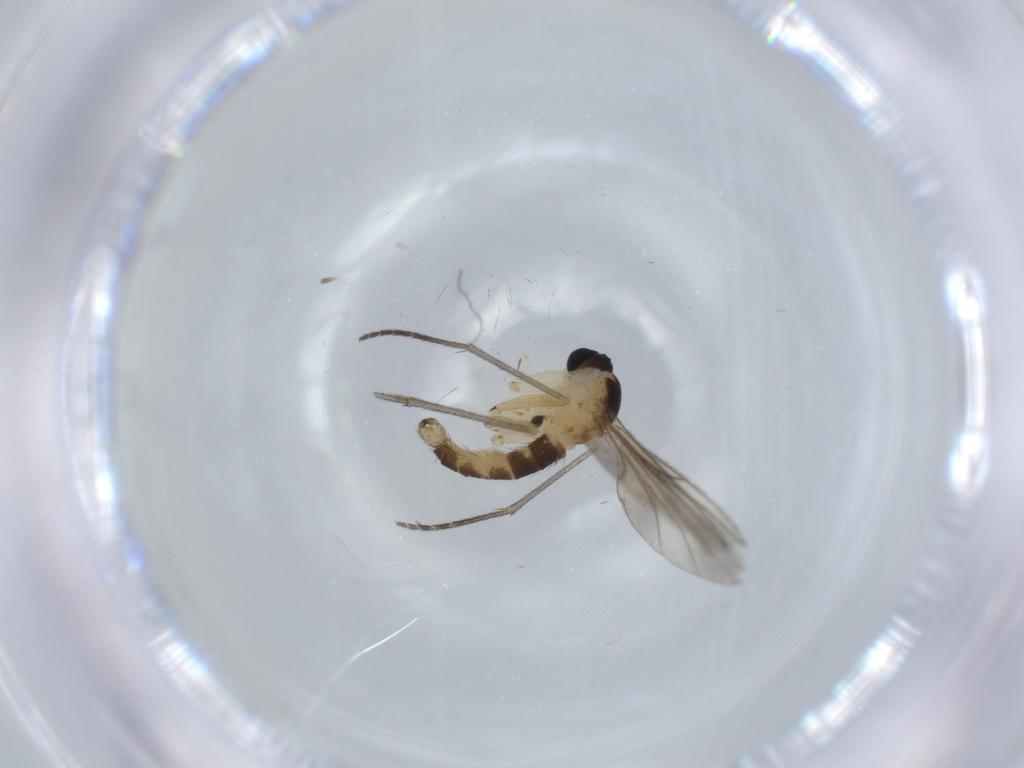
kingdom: Animalia
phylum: Arthropoda
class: Insecta
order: Diptera
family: Sciaridae
